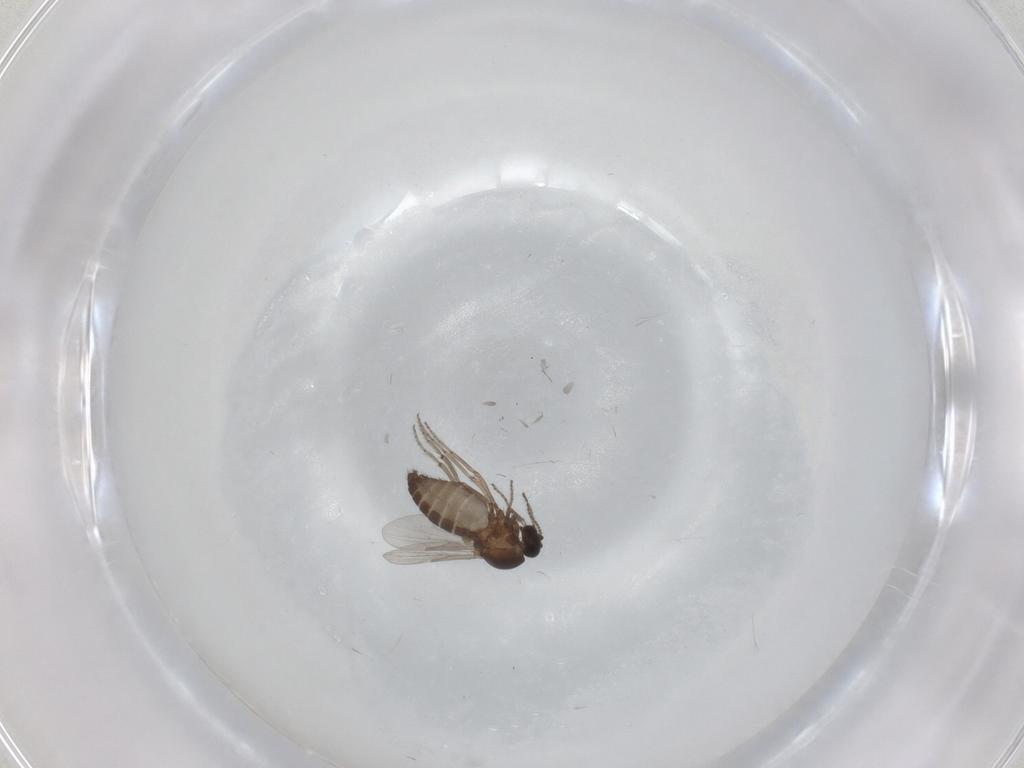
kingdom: Animalia
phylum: Arthropoda
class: Insecta
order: Diptera
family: Ceratopogonidae
